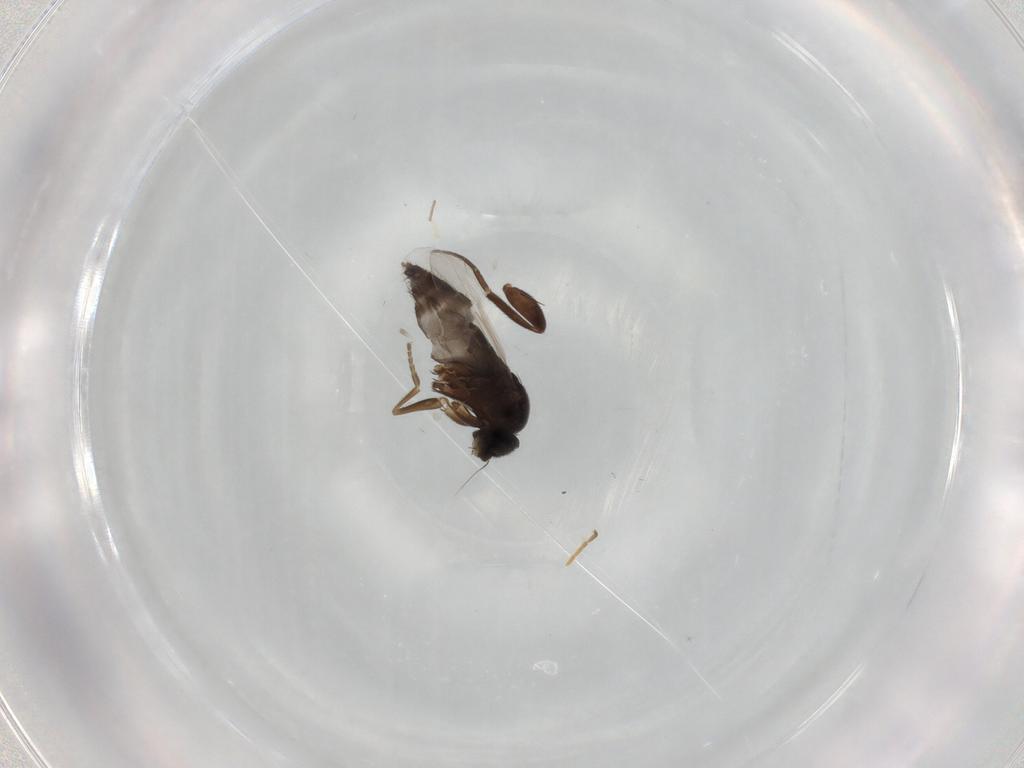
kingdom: Animalia
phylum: Arthropoda
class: Insecta
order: Diptera
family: Phoridae
